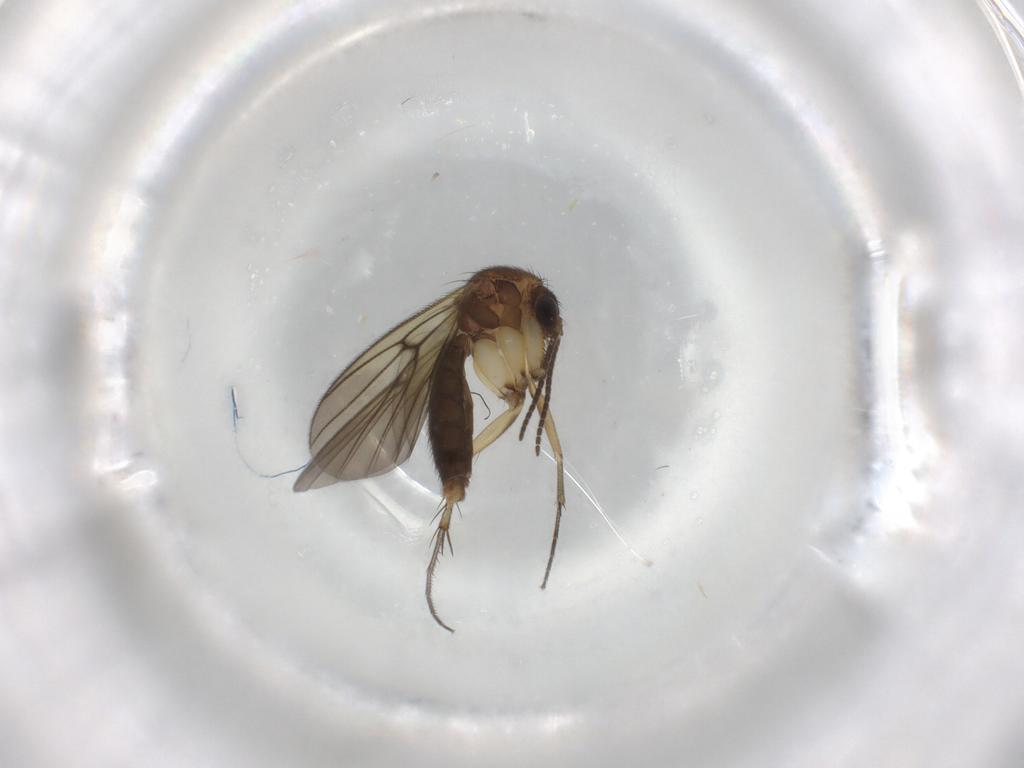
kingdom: Animalia
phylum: Arthropoda
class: Insecta
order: Diptera
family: Phoridae
